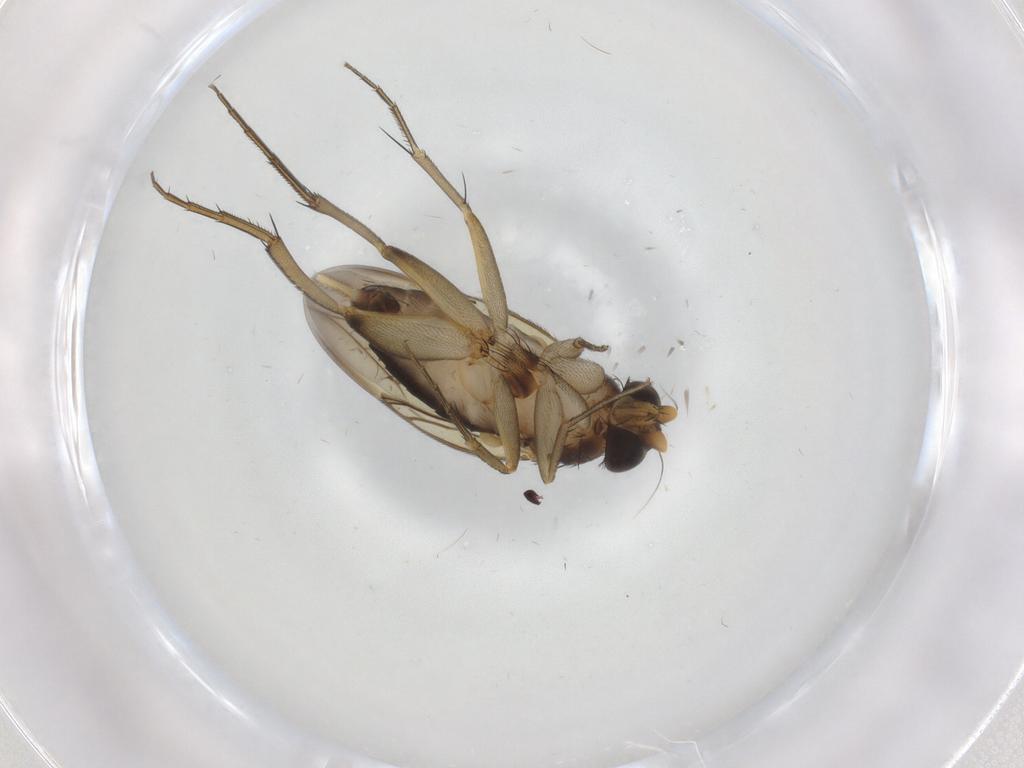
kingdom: Animalia
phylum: Arthropoda
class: Insecta
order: Diptera
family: Phoridae
